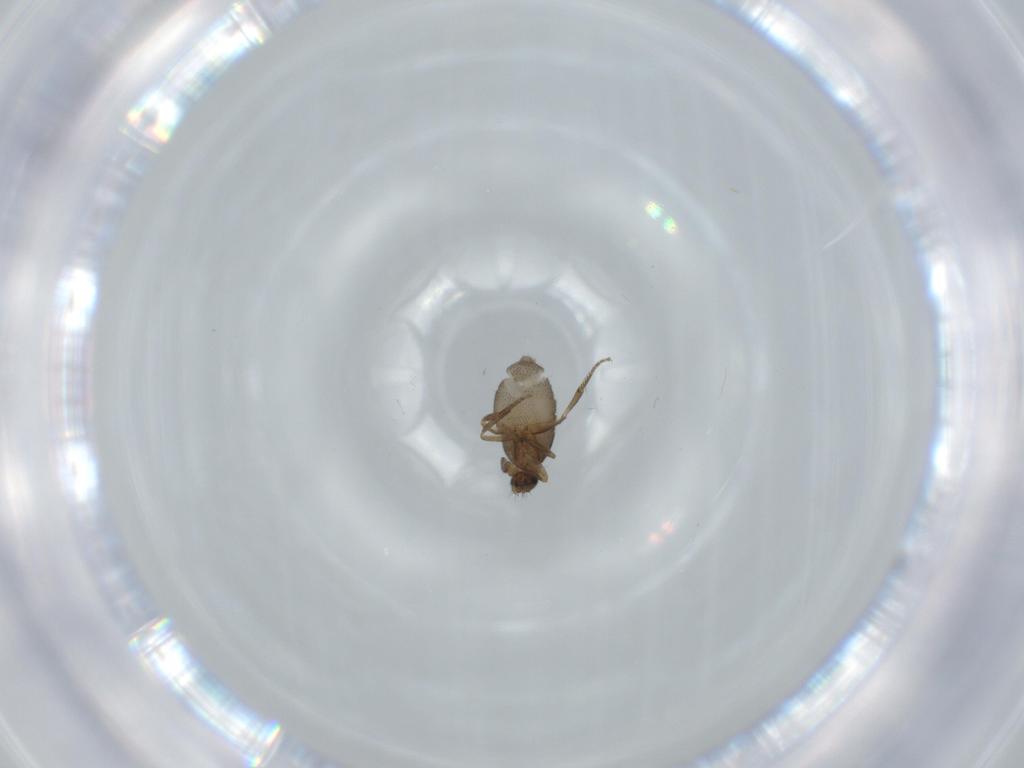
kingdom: Animalia
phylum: Arthropoda
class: Insecta
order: Diptera
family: Phoridae
